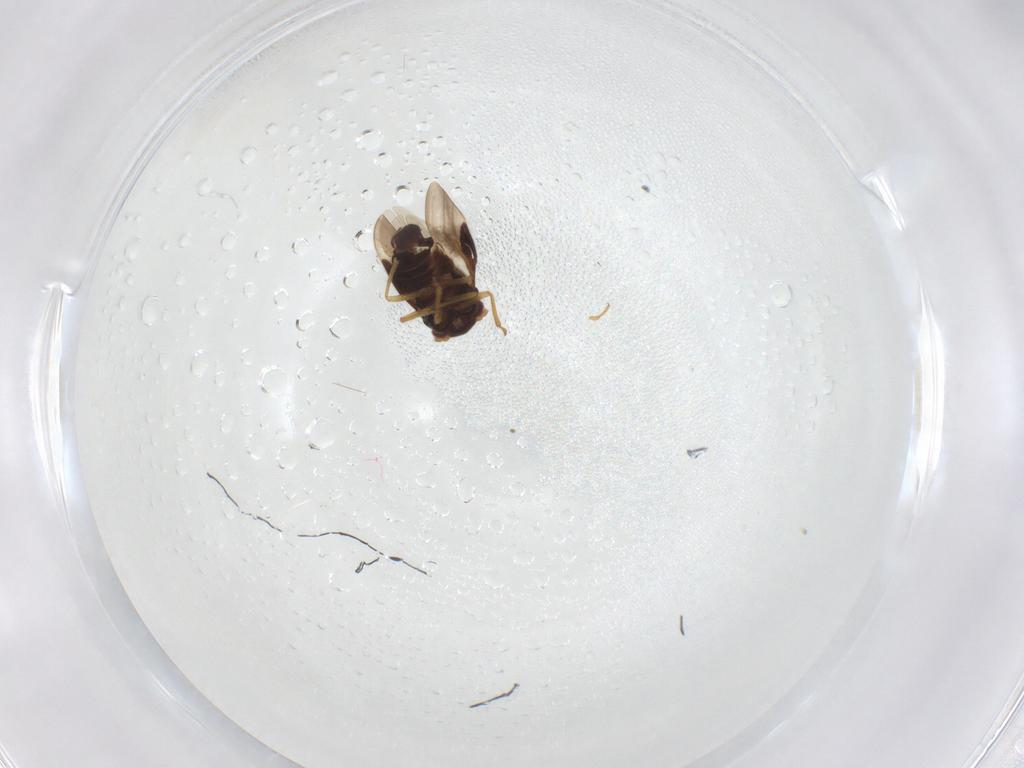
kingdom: Animalia
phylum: Arthropoda
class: Insecta
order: Hemiptera
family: Schizopteridae
